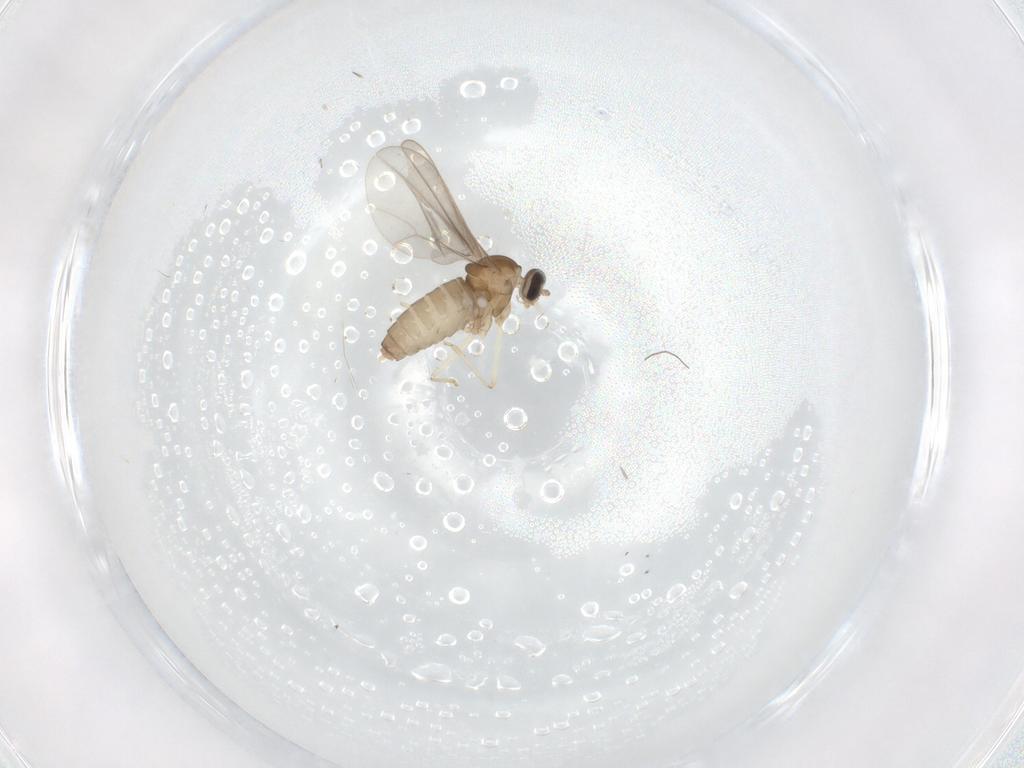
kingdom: Animalia
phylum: Arthropoda
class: Insecta
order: Diptera
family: Cecidomyiidae
